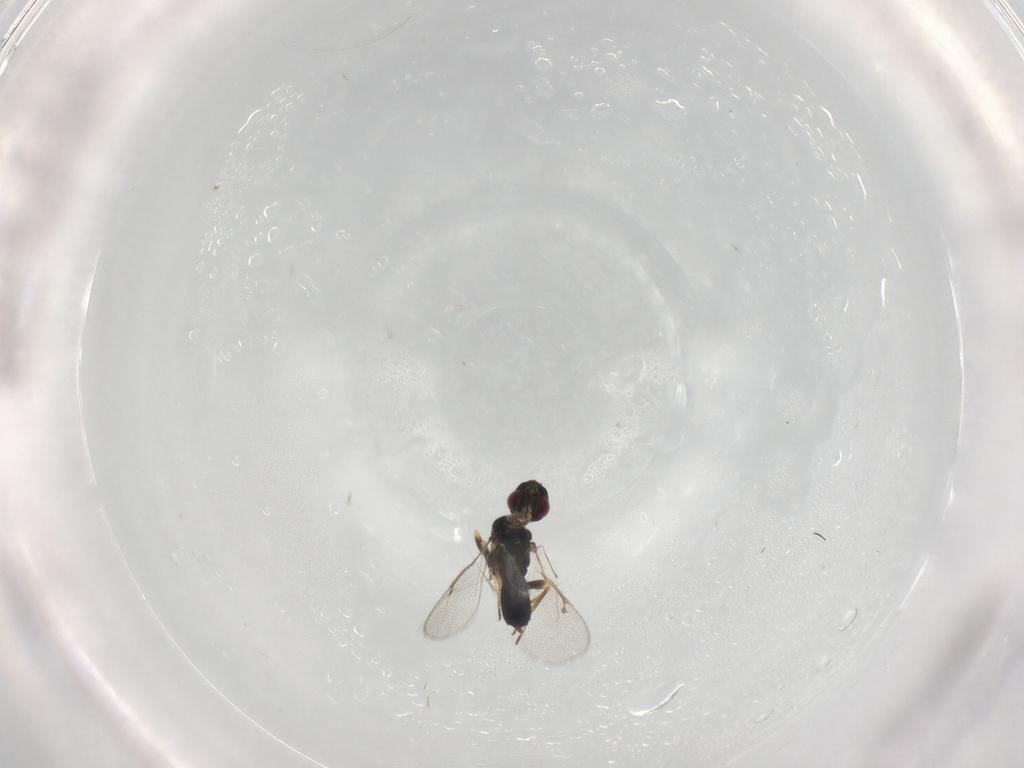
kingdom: Animalia
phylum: Arthropoda
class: Insecta
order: Hymenoptera
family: Eulophidae
